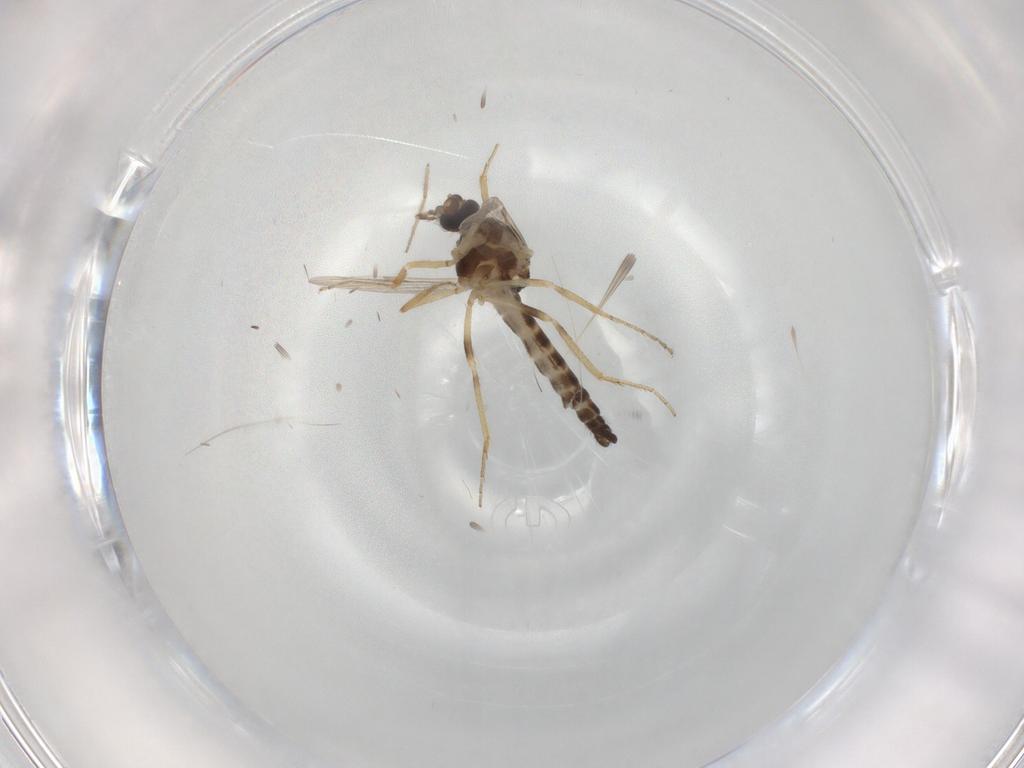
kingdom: Animalia
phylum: Arthropoda
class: Insecta
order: Diptera
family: Ceratopogonidae
